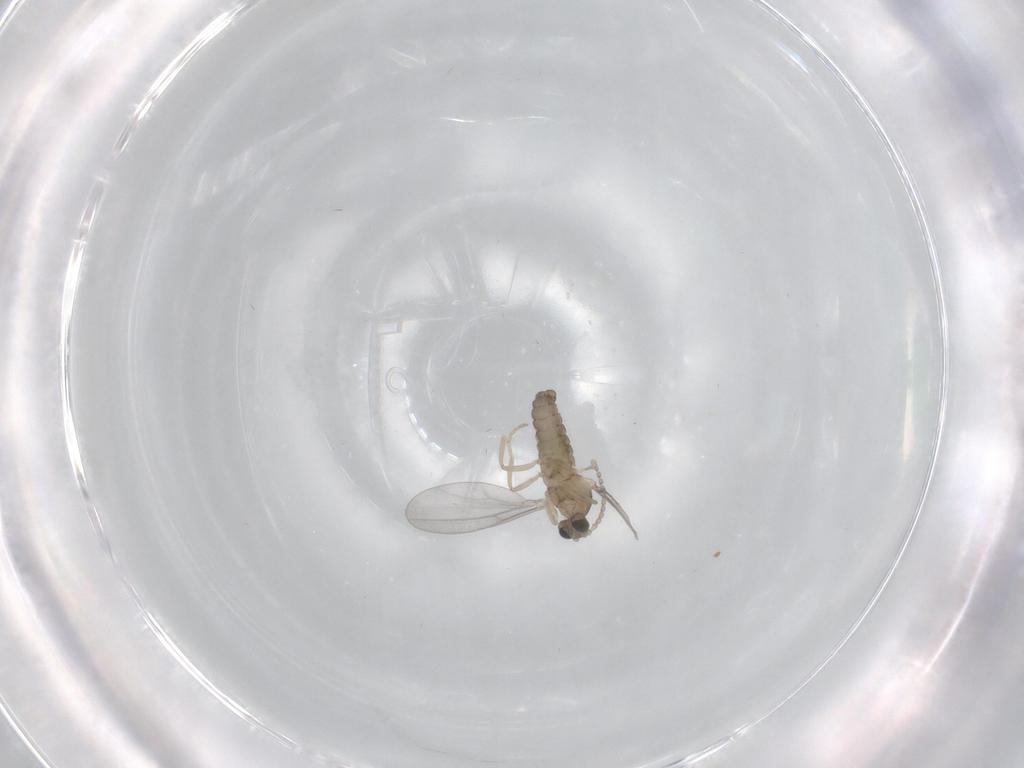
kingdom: Animalia
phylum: Arthropoda
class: Insecta
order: Diptera
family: Cecidomyiidae
